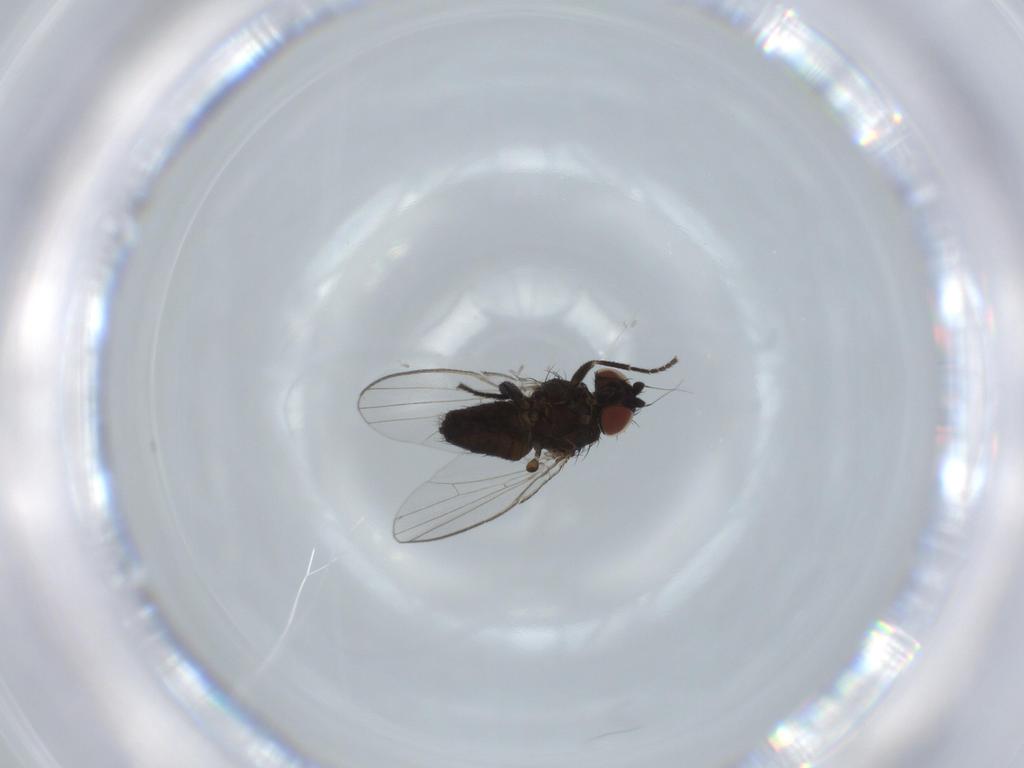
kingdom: Animalia
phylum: Arthropoda
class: Insecta
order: Diptera
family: Milichiidae
